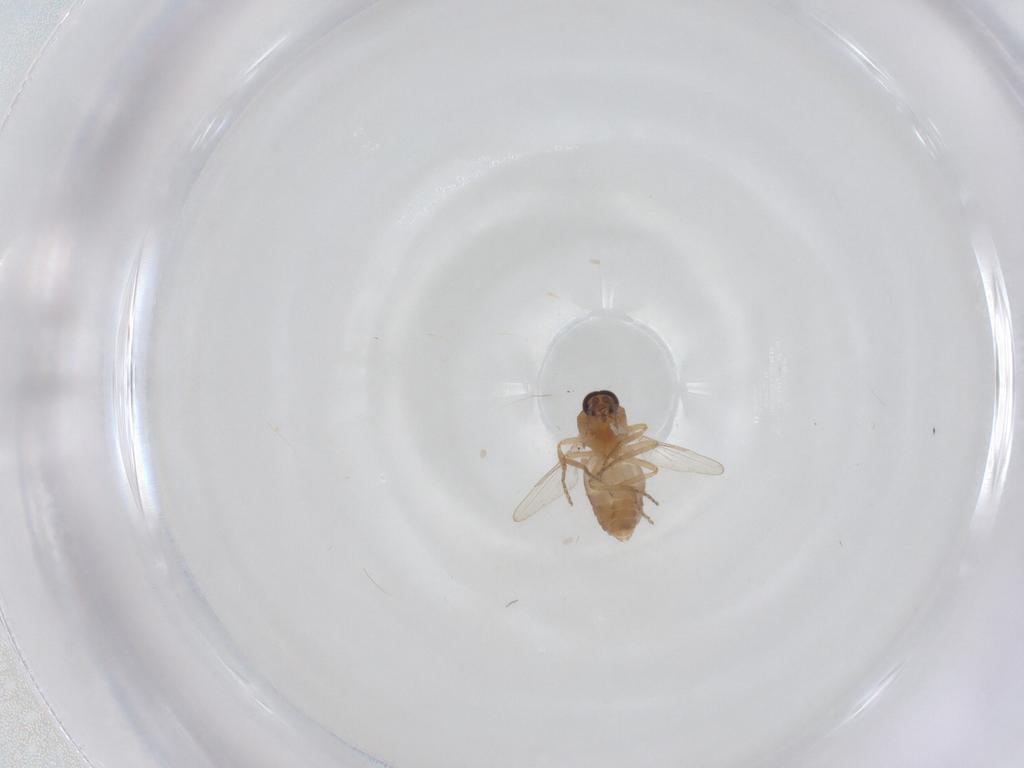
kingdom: Animalia
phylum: Arthropoda
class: Insecta
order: Diptera
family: Ceratopogonidae
